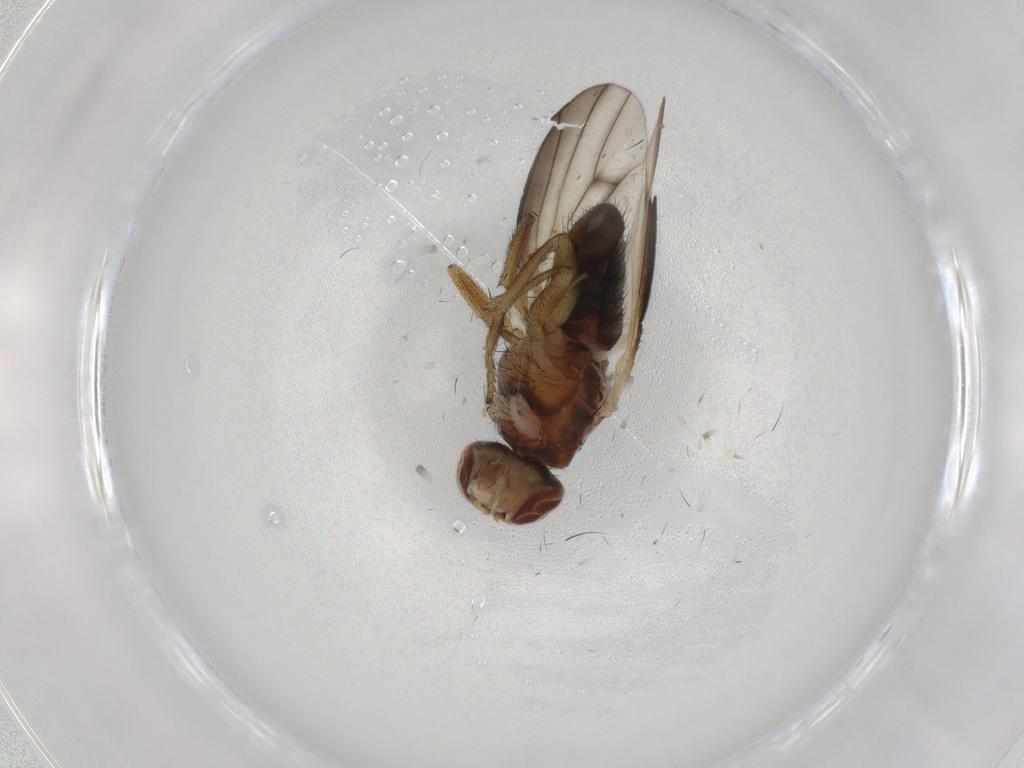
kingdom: Animalia
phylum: Arthropoda
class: Insecta
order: Diptera
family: Heleomyzidae
